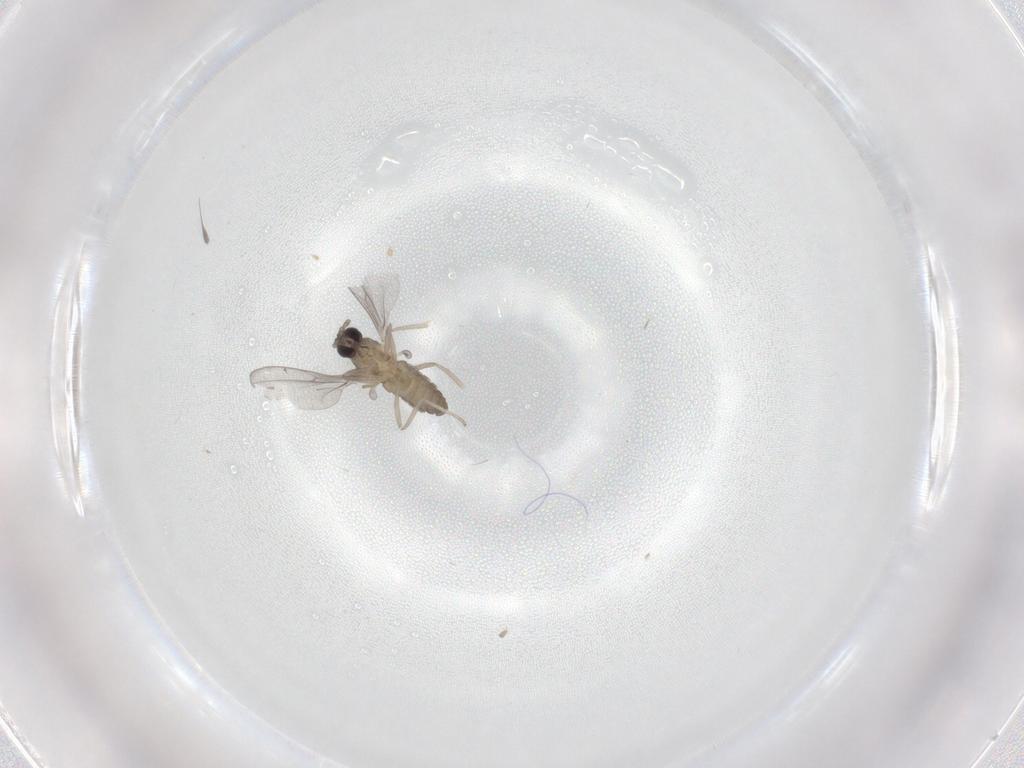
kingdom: Animalia
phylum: Arthropoda
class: Insecta
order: Diptera
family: Cecidomyiidae
